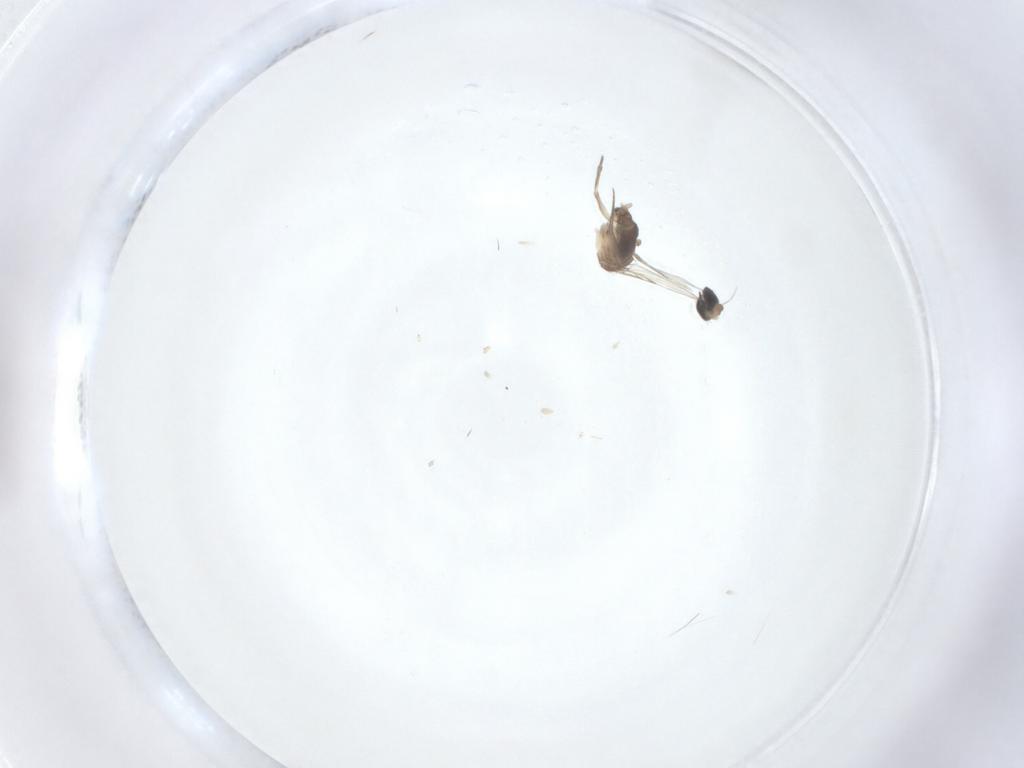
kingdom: Animalia
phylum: Arthropoda
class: Insecta
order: Diptera
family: Phoridae
